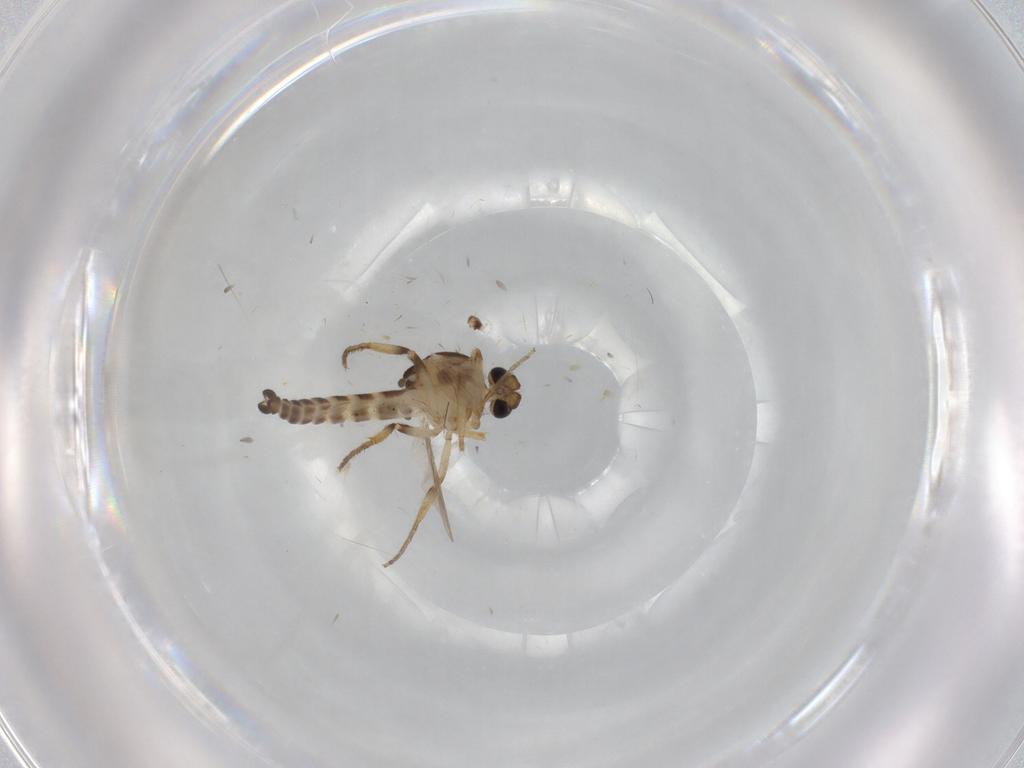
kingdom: Animalia
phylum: Arthropoda
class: Insecta
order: Diptera
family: Ceratopogonidae
